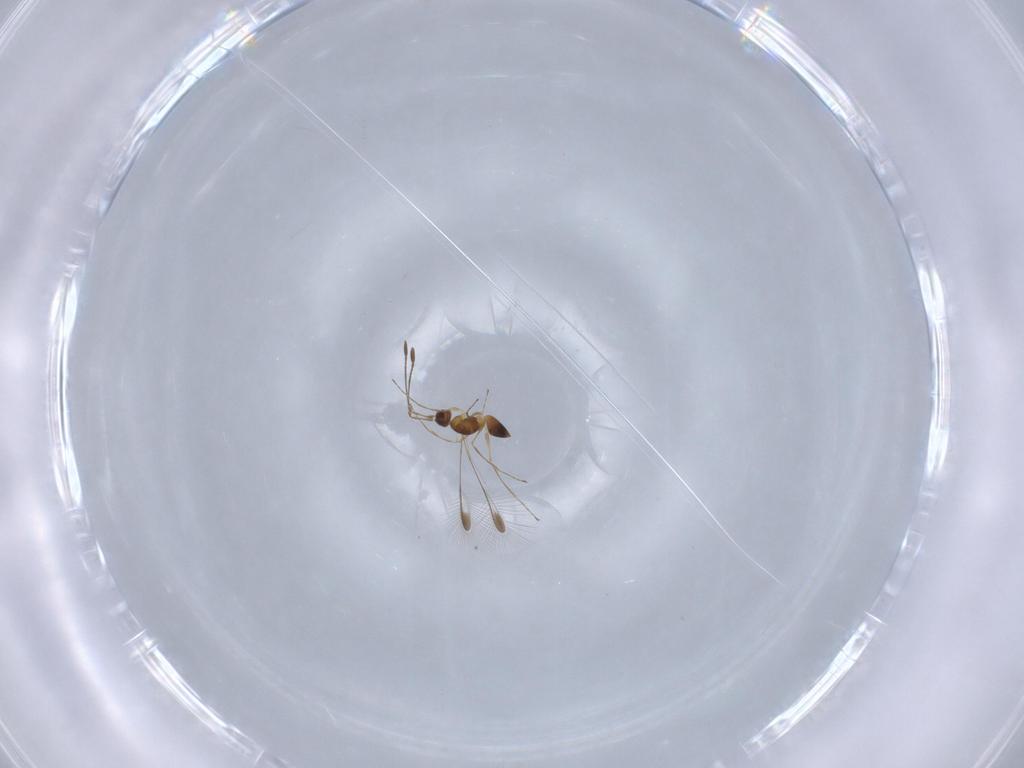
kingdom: Animalia
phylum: Arthropoda
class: Insecta
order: Hymenoptera
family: Mymaridae
